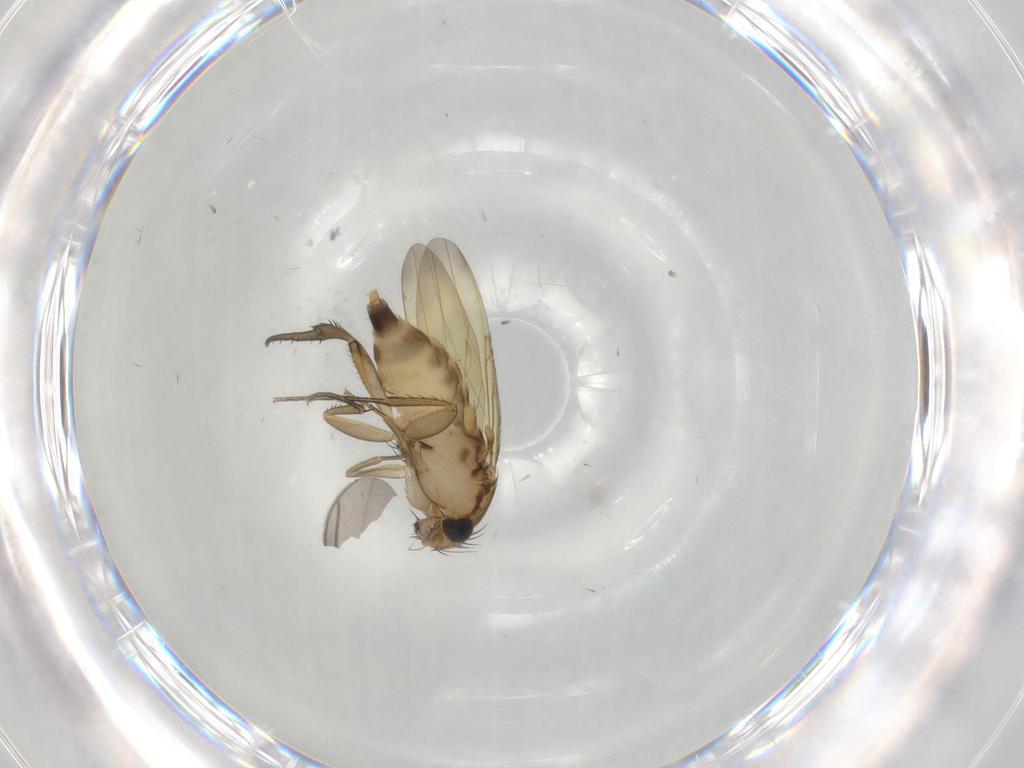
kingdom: Animalia
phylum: Arthropoda
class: Insecta
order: Diptera
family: Phoridae
